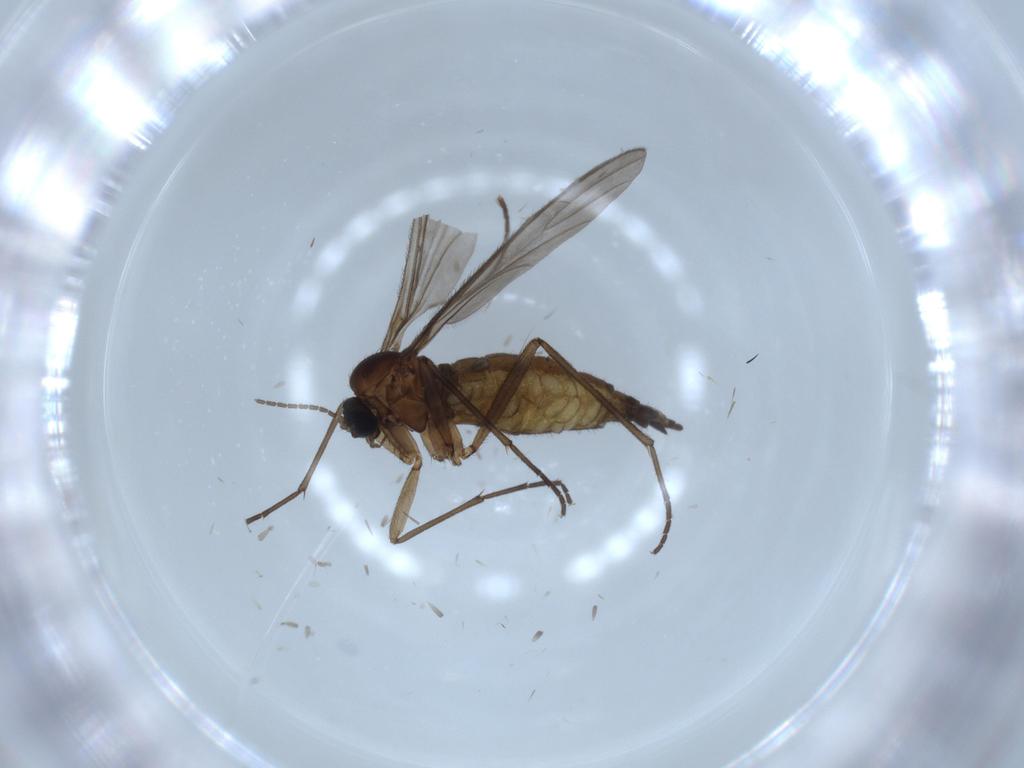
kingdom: Animalia
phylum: Arthropoda
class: Insecta
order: Diptera
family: Sciaridae
